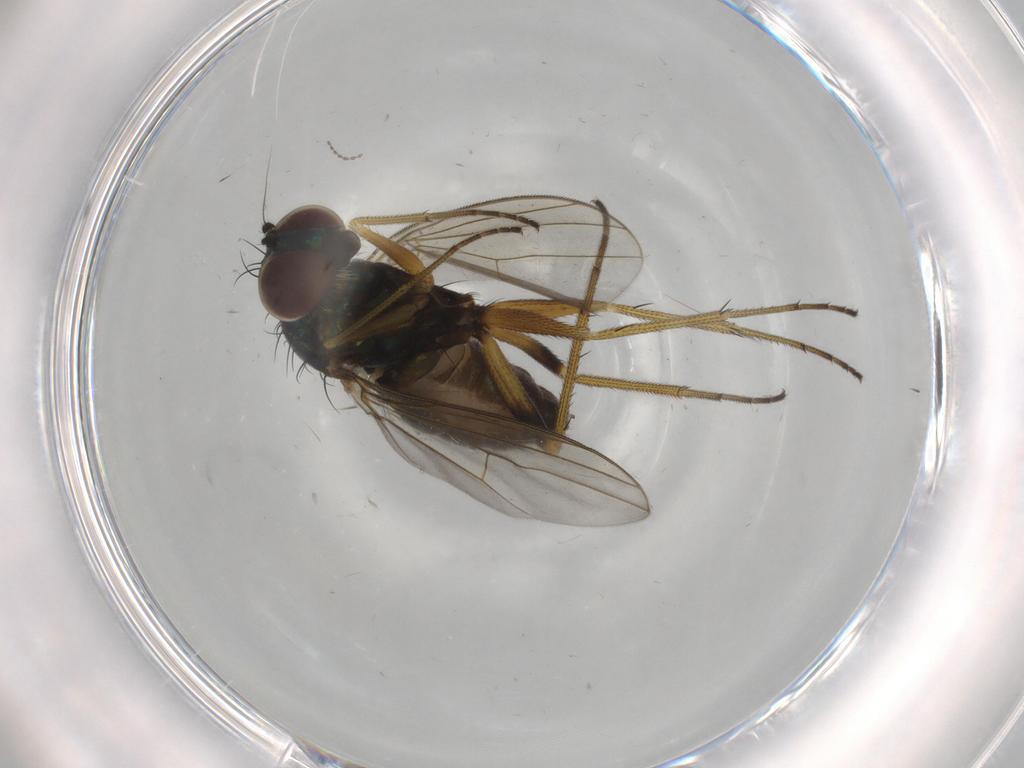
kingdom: Animalia
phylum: Arthropoda
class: Insecta
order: Diptera
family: Dolichopodidae
